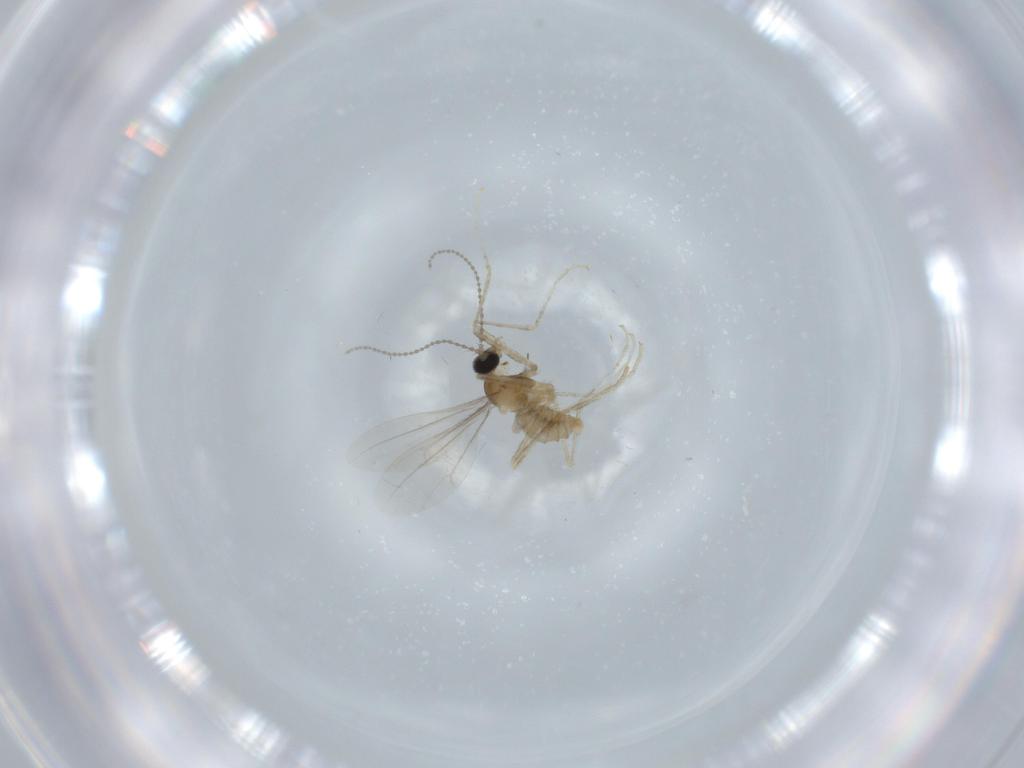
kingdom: Animalia
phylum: Arthropoda
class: Insecta
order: Diptera
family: Cecidomyiidae
